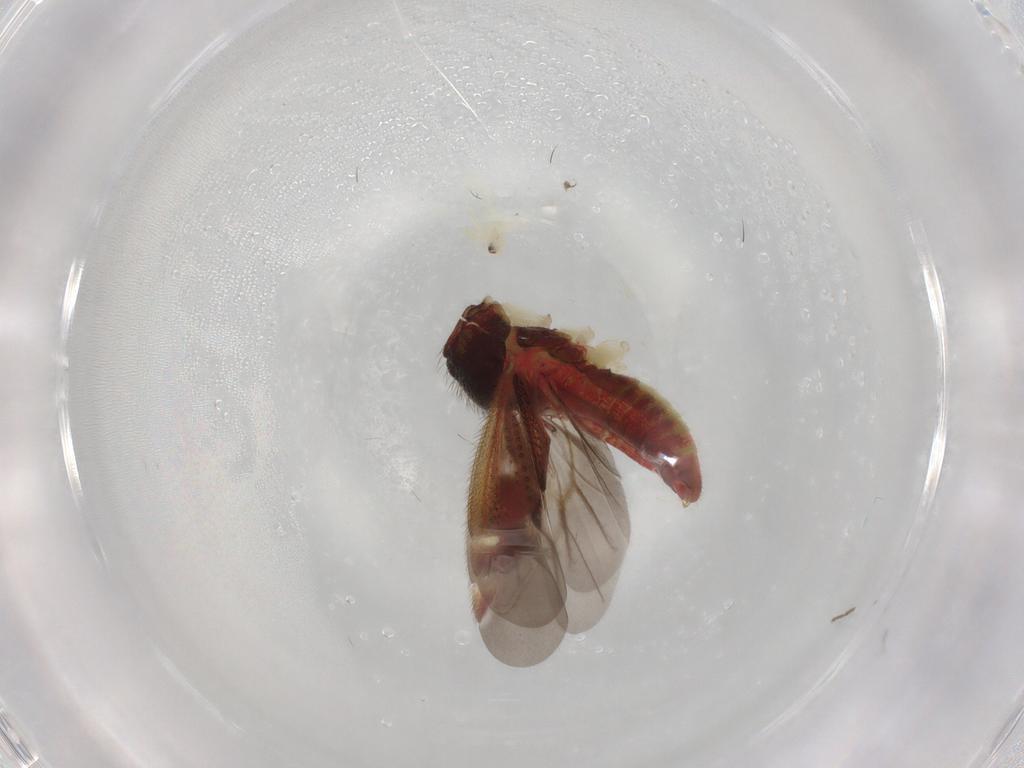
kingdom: Animalia
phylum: Arthropoda
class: Insecta
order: Hemiptera
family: Miridae
